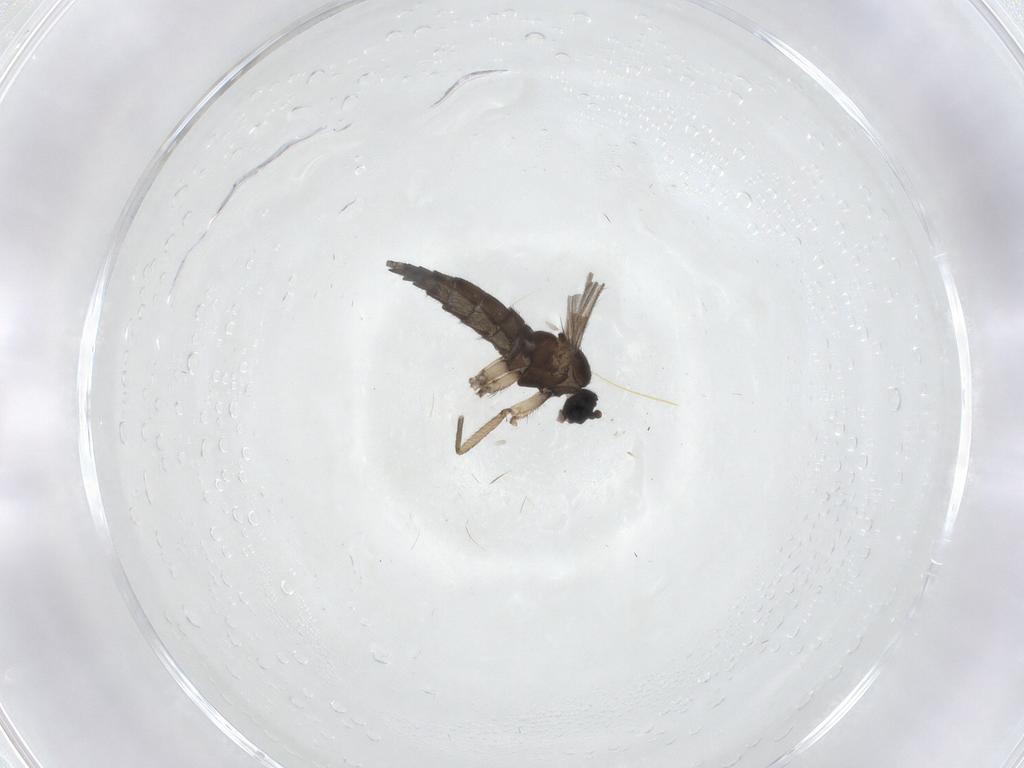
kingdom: Animalia
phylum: Arthropoda
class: Insecta
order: Diptera
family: Sciaridae
